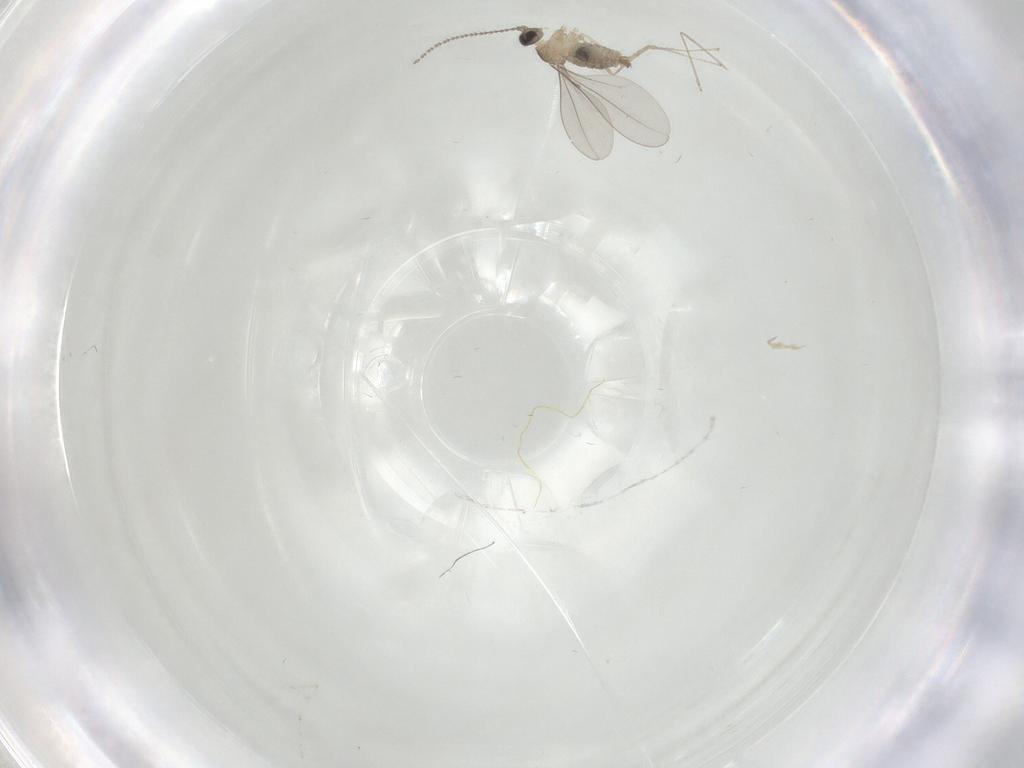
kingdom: Animalia
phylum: Arthropoda
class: Insecta
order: Diptera
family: Cecidomyiidae
